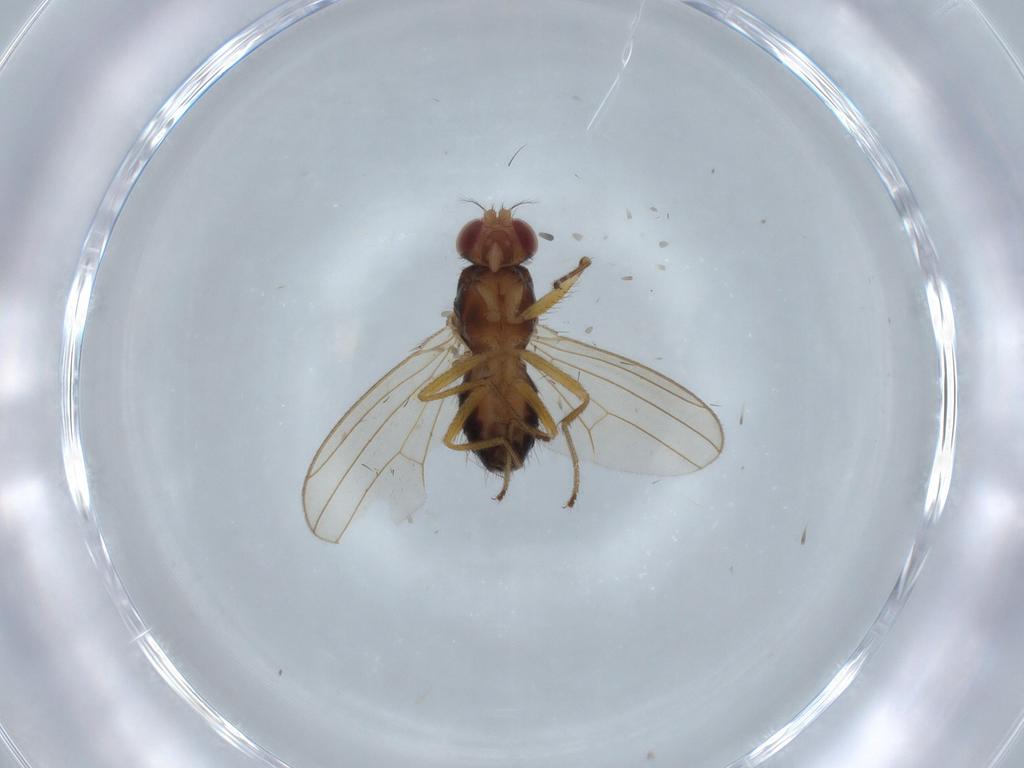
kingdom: Animalia
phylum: Arthropoda
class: Insecta
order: Diptera
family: Drosophilidae
